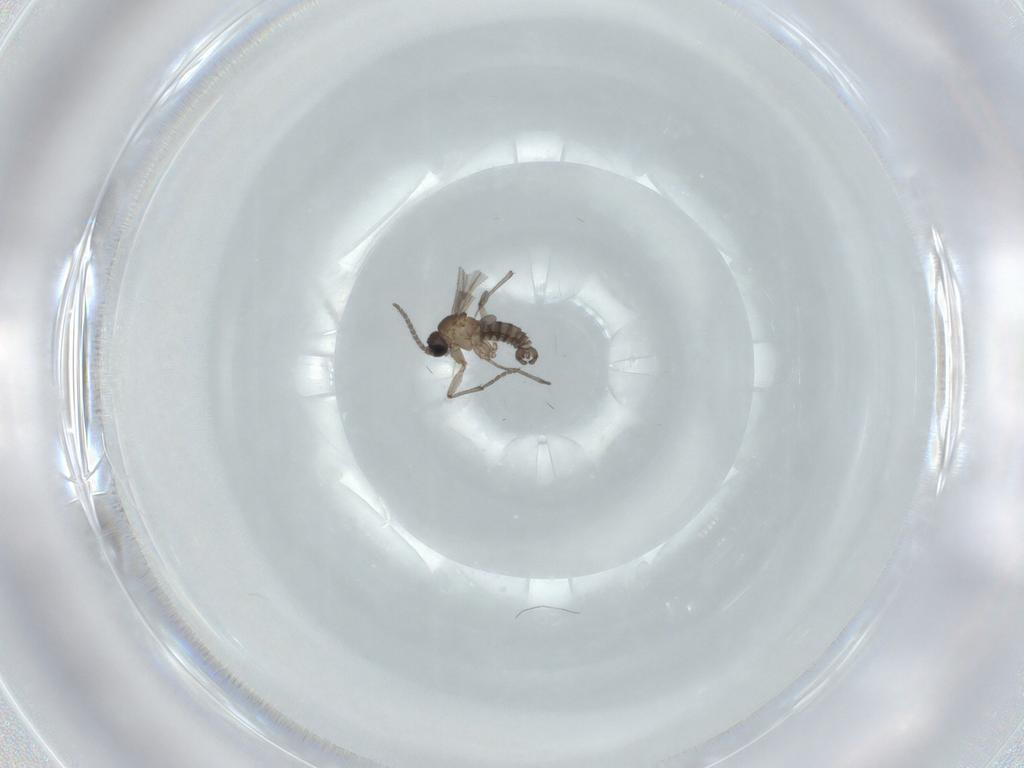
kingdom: Animalia
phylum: Arthropoda
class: Insecta
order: Diptera
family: Sciaridae
